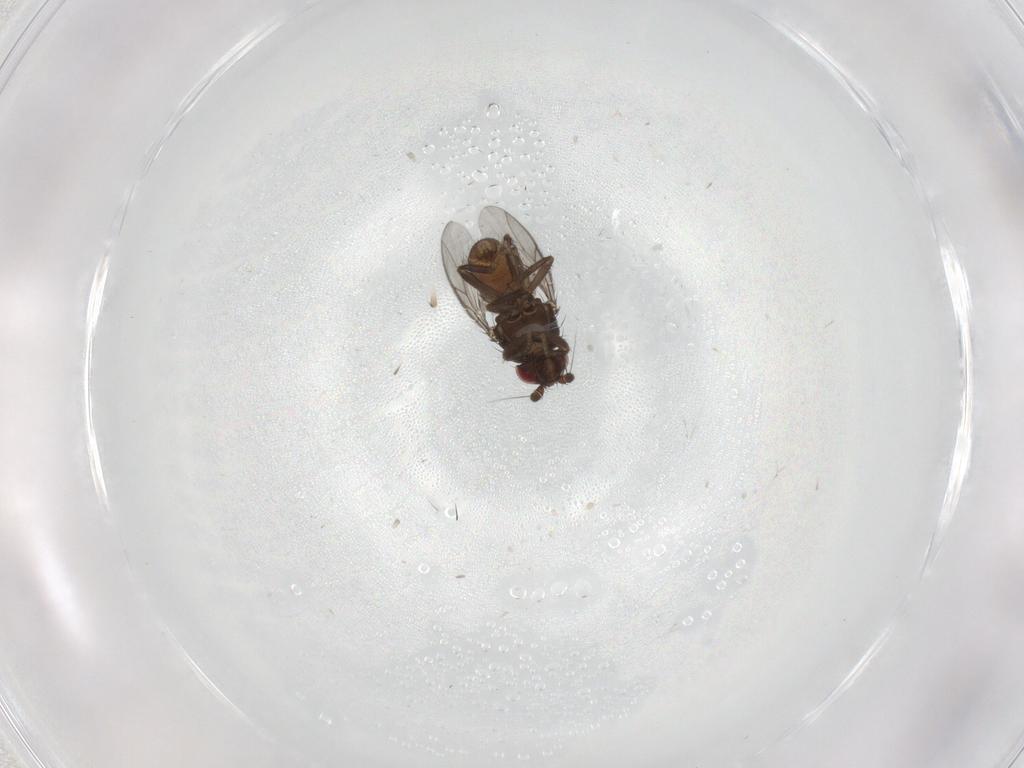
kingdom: Animalia
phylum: Arthropoda
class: Insecta
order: Diptera
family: Sphaeroceridae
